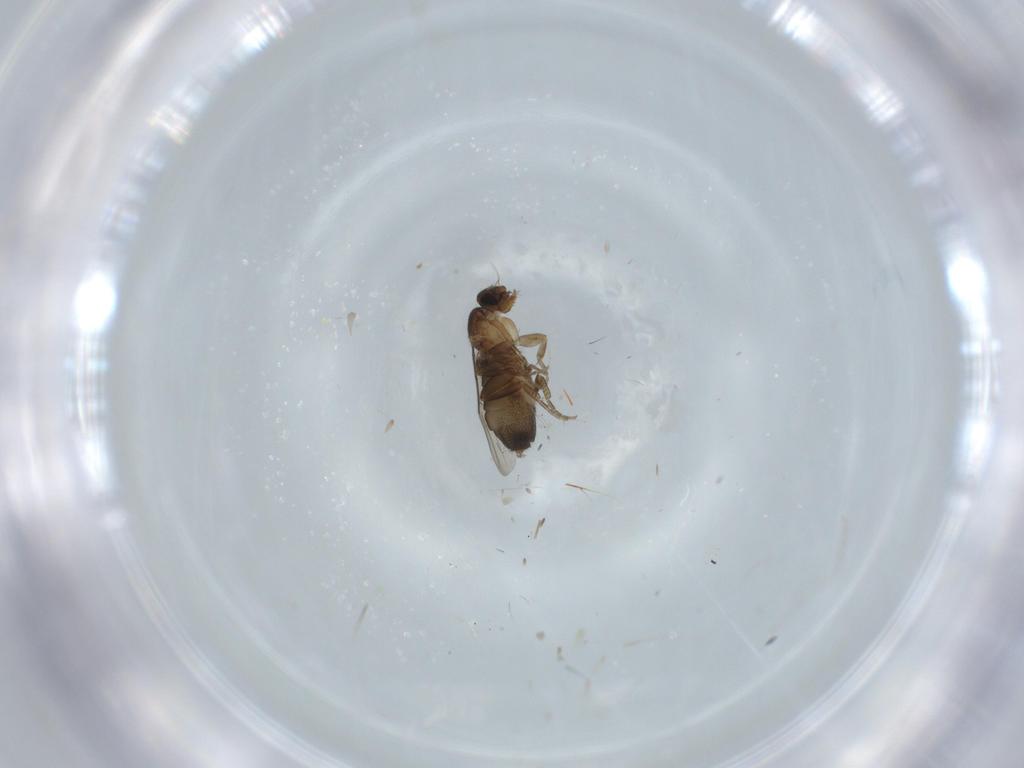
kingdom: Animalia
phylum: Arthropoda
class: Insecta
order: Diptera
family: Phoridae
